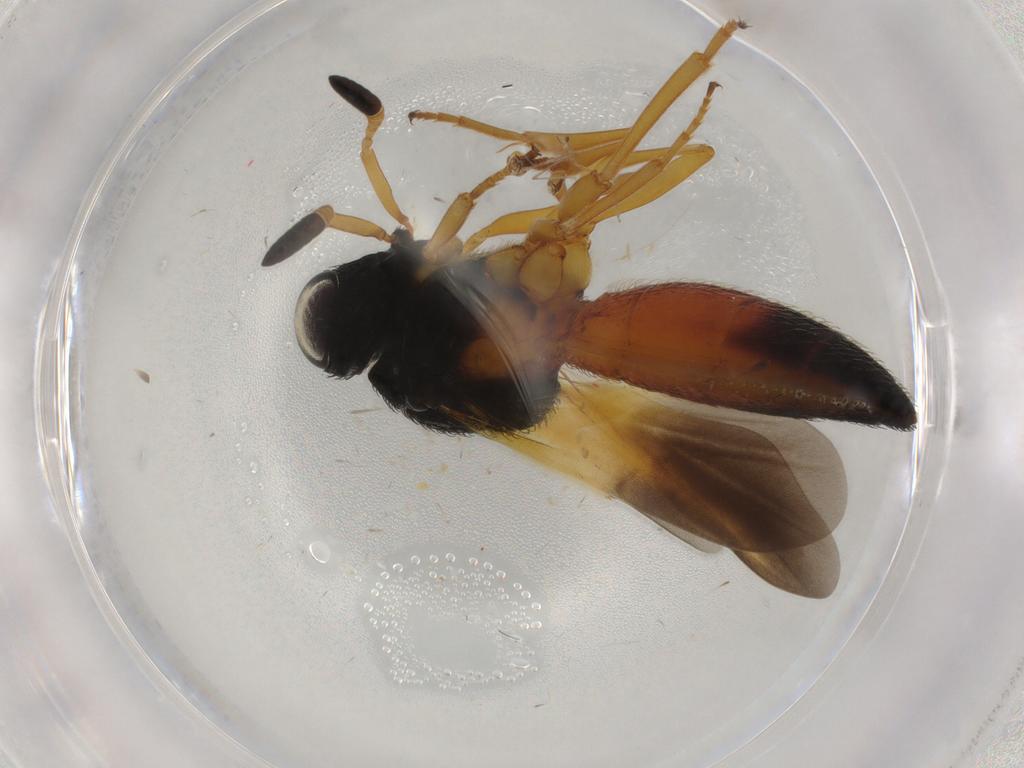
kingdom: Animalia
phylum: Arthropoda
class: Insecta
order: Hymenoptera
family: Scelionidae
